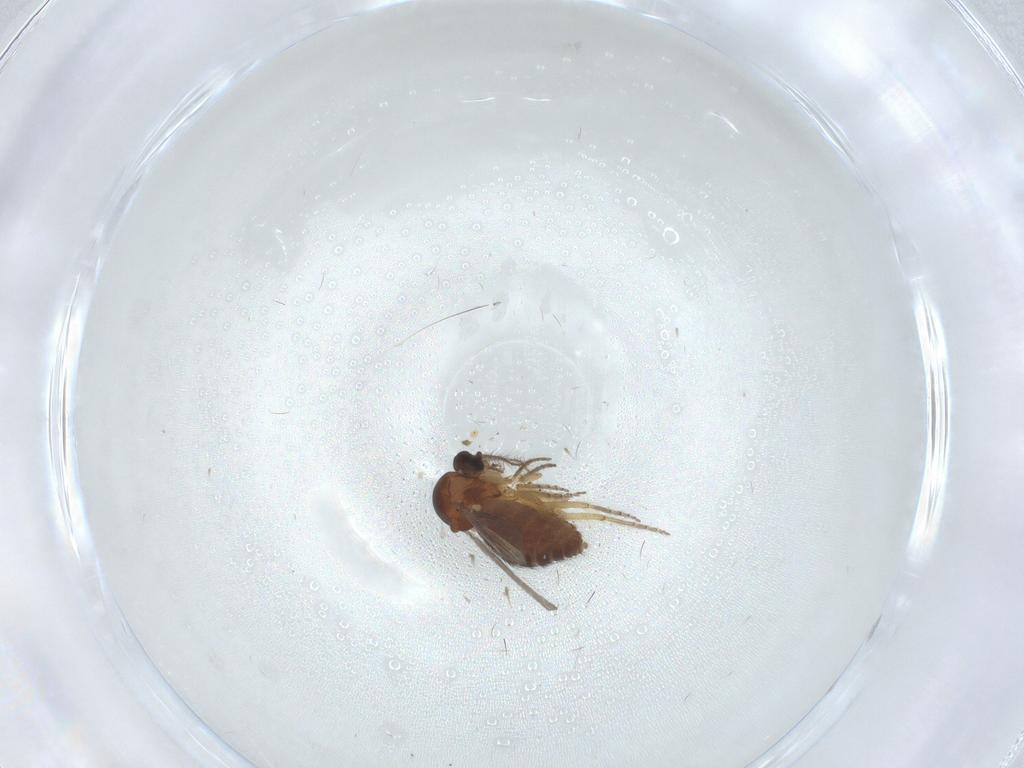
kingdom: Animalia
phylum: Arthropoda
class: Insecta
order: Diptera
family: Ceratopogonidae
